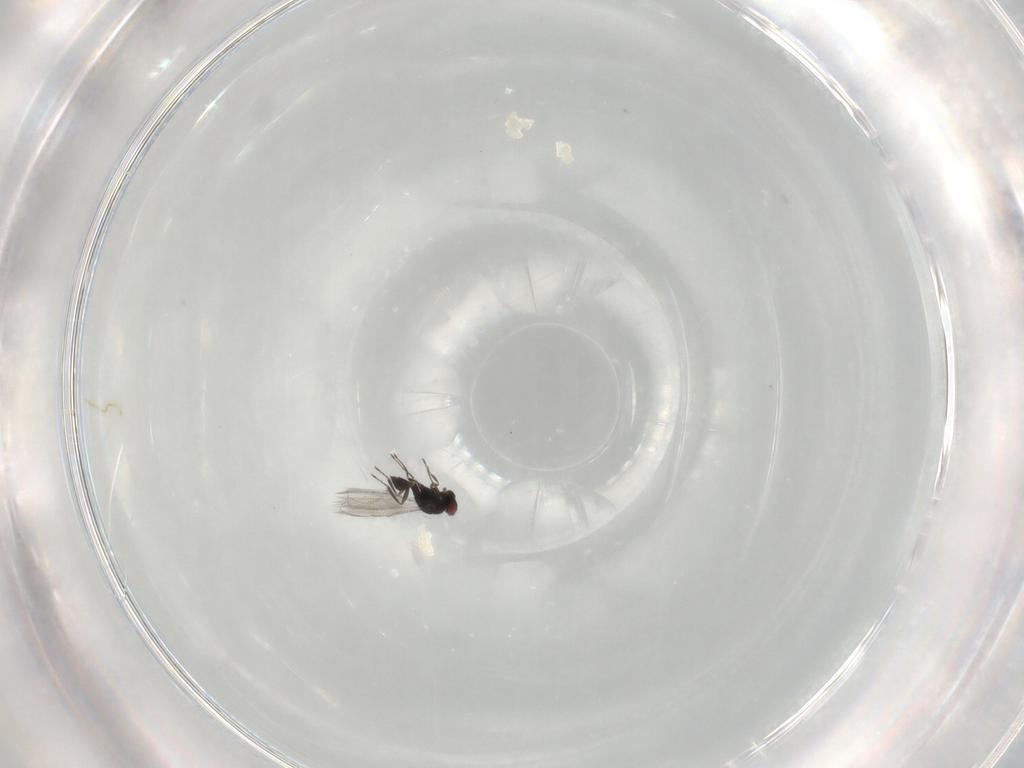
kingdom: Animalia
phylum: Arthropoda
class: Insecta
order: Hymenoptera
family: Eulophidae
